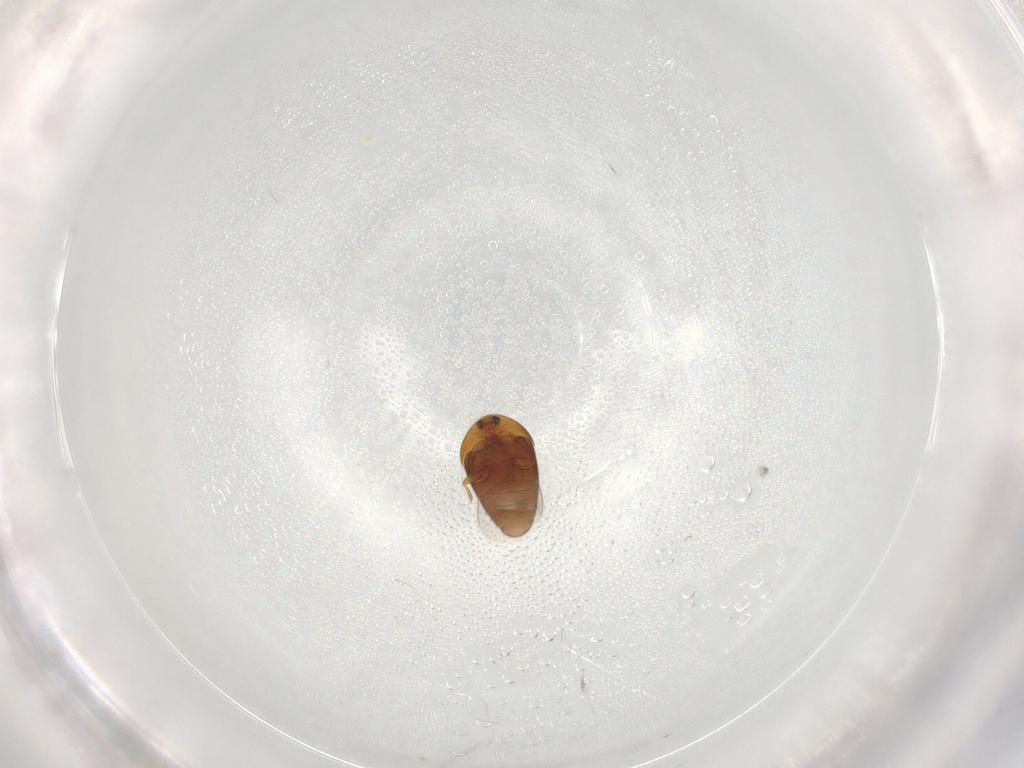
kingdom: Animalia
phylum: Arthropoda
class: Insecta
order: Coleoptera
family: Corylophidae
